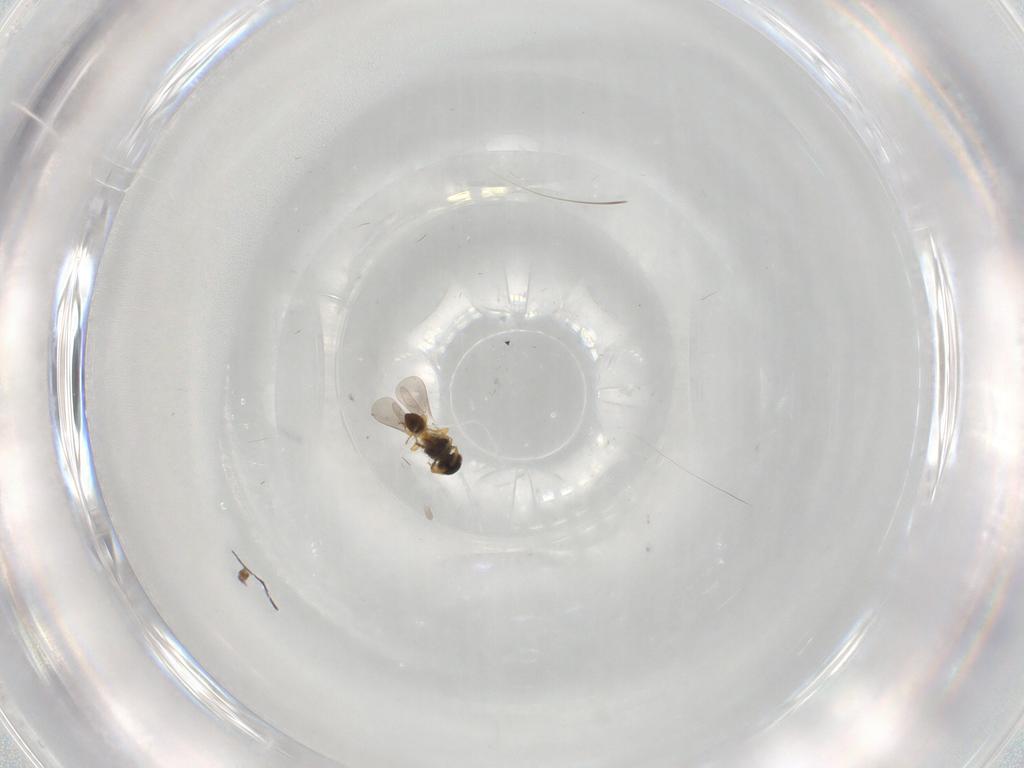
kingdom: Animalia
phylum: Arthropoda
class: Insecta
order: Hymenoptera
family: Platygastridae
